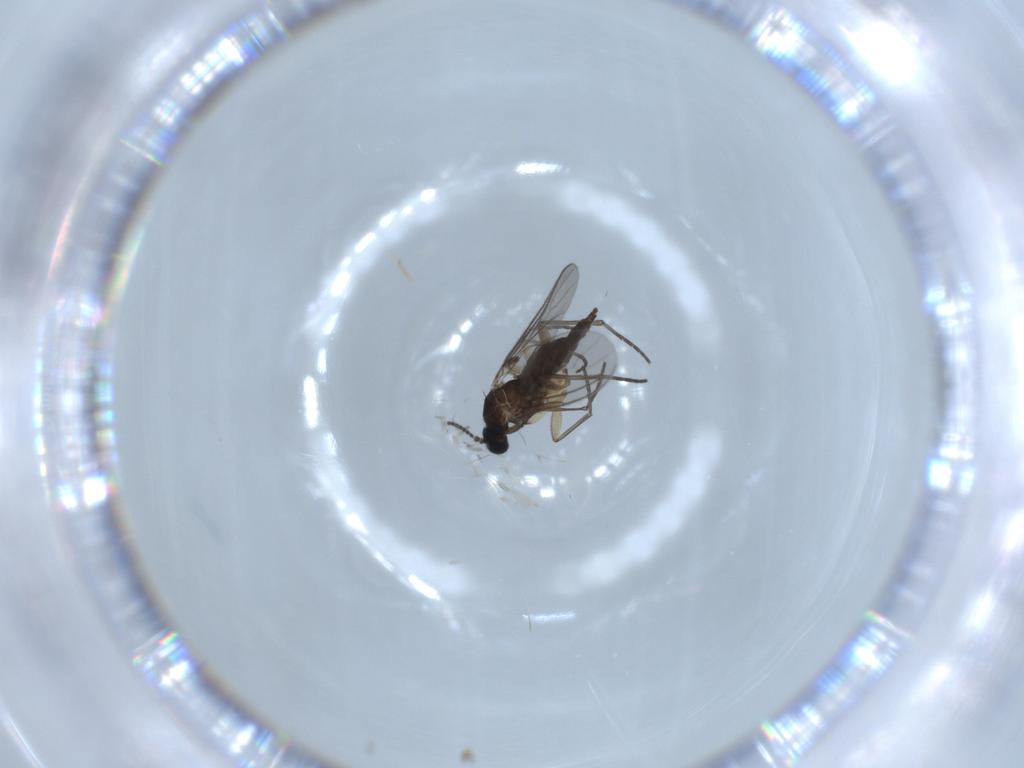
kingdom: Animalia
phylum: Arthropoda
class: Insecta
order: Diptera
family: Sciaridae
